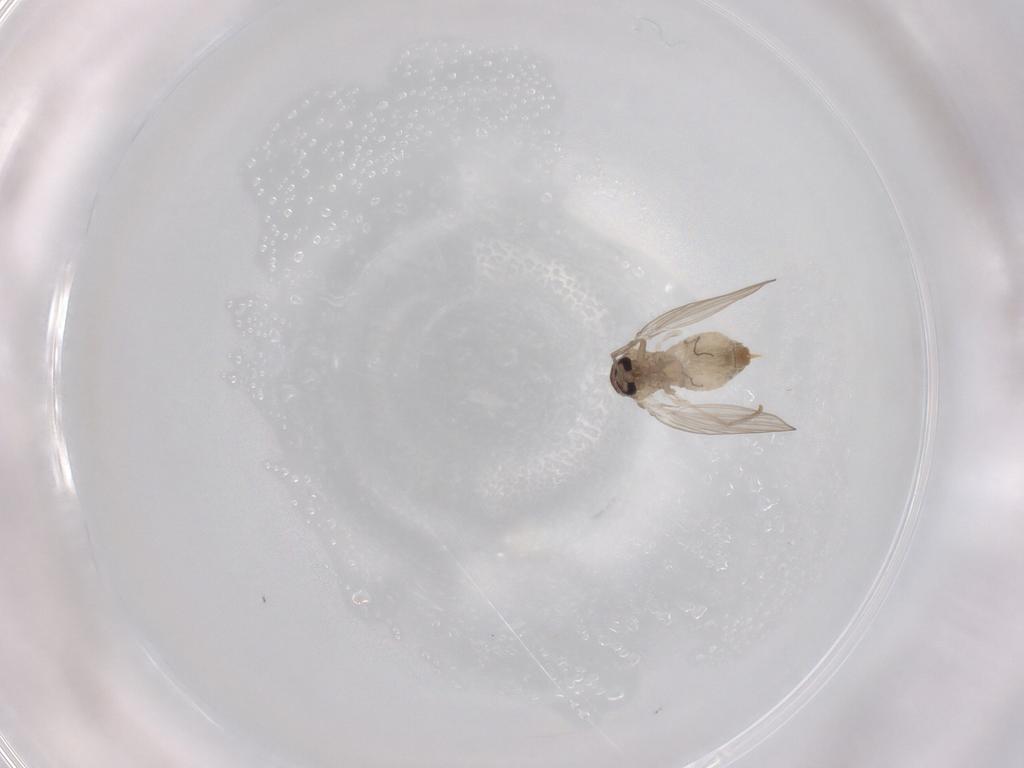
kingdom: Animalia
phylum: Arthropoda
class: Insecta
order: Diptera
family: Psychodidae
